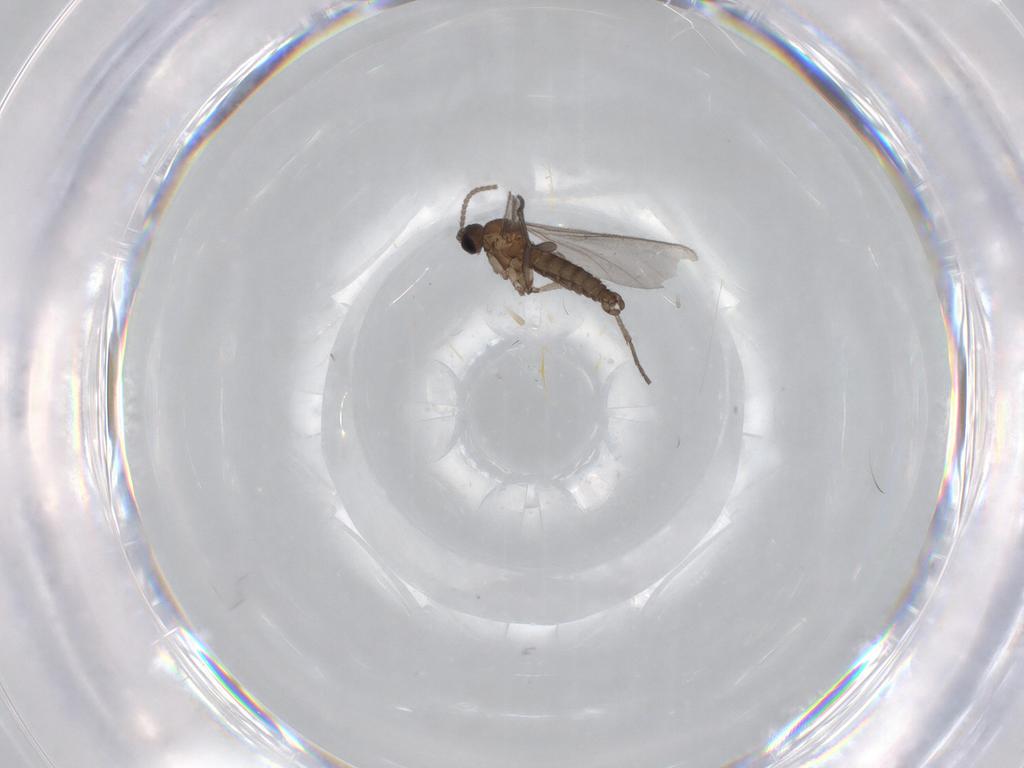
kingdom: Animalia
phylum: Arthropoda
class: Insecta
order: Diptera
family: Sciaridae
